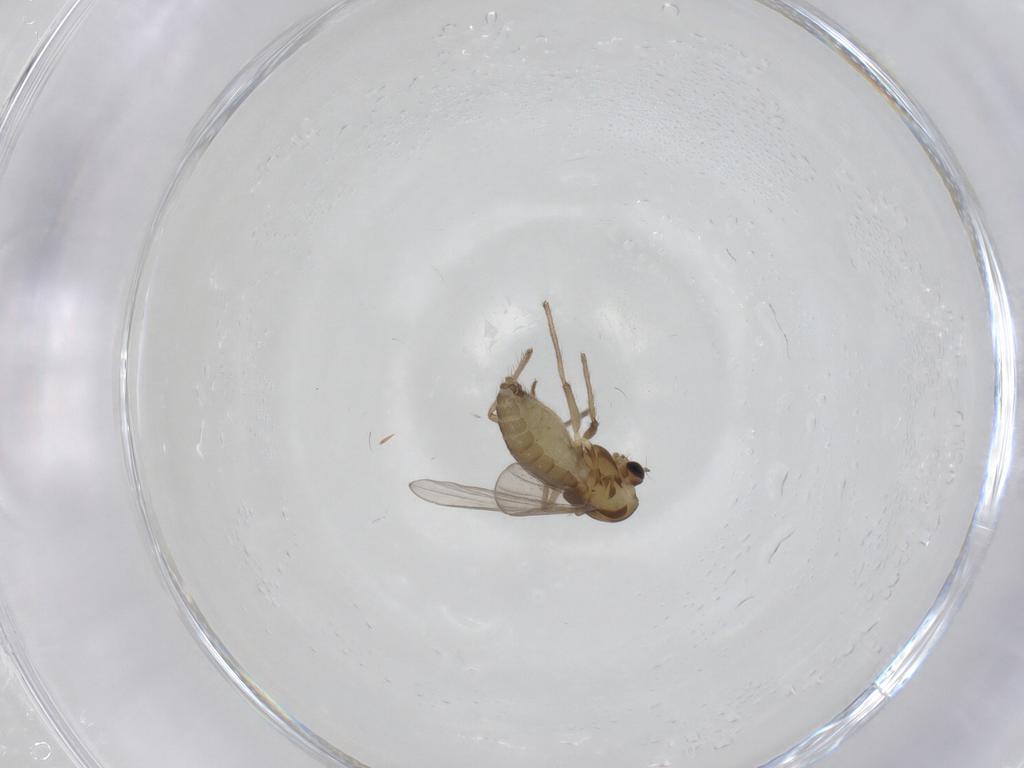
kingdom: Animalia
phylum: Arthropoda
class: Insecta
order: Diptera
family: Chironomidae
